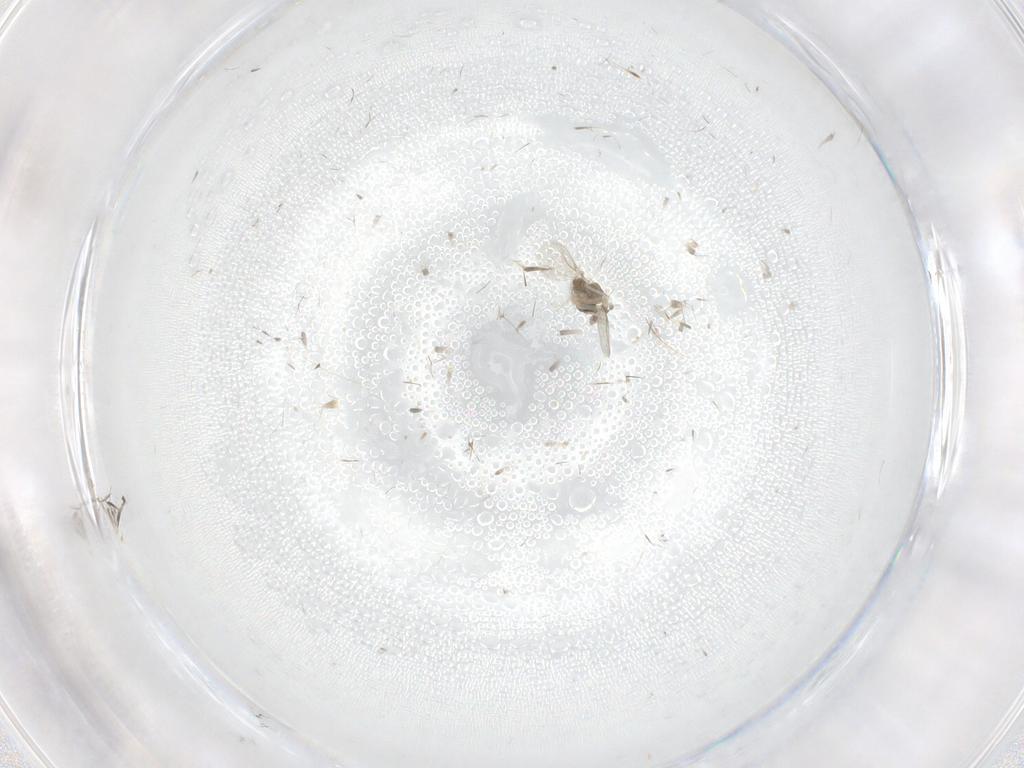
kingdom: Animalia
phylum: Arthropoda
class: Insecta
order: Diptera
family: Cecidomyiidae
